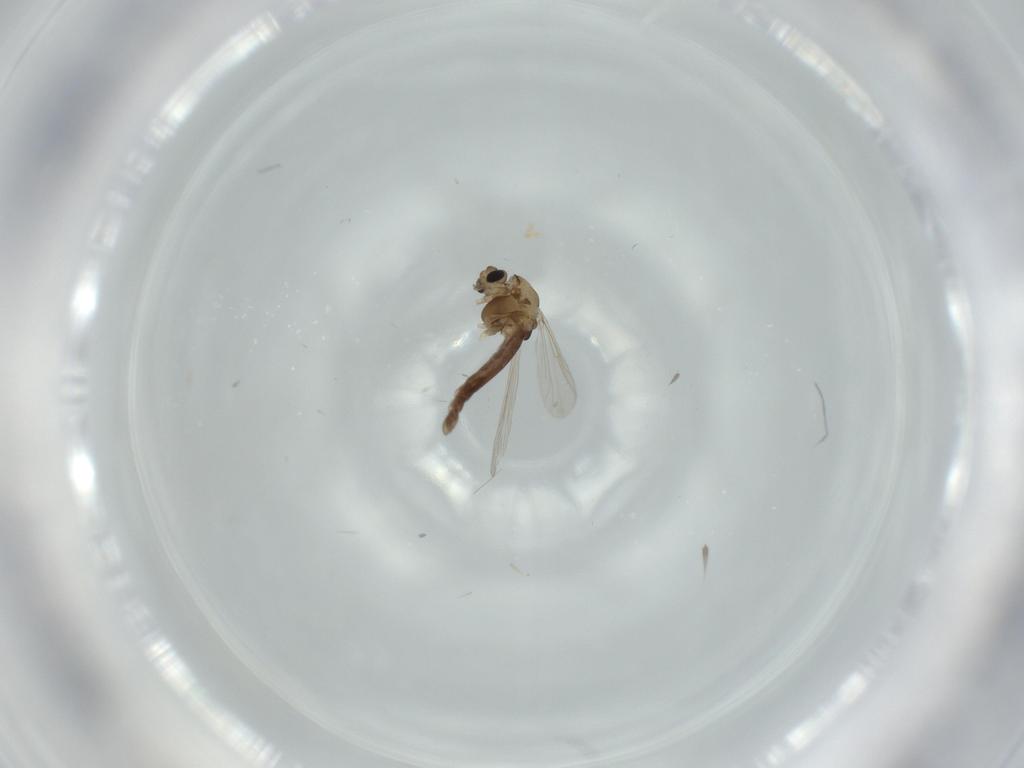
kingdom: Animalia
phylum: Arthropoda
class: Insecta
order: Diptera
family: Chironomidae
